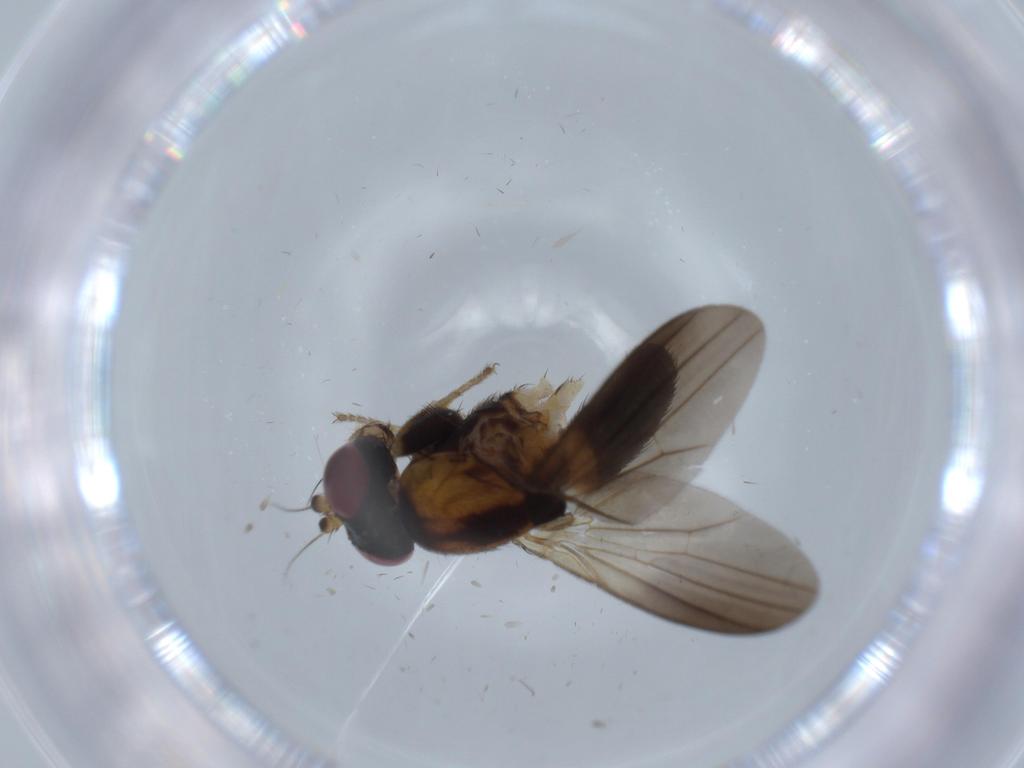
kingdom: Animalia
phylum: Arthropoda
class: Insecta
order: Diptera
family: Clusiidae
